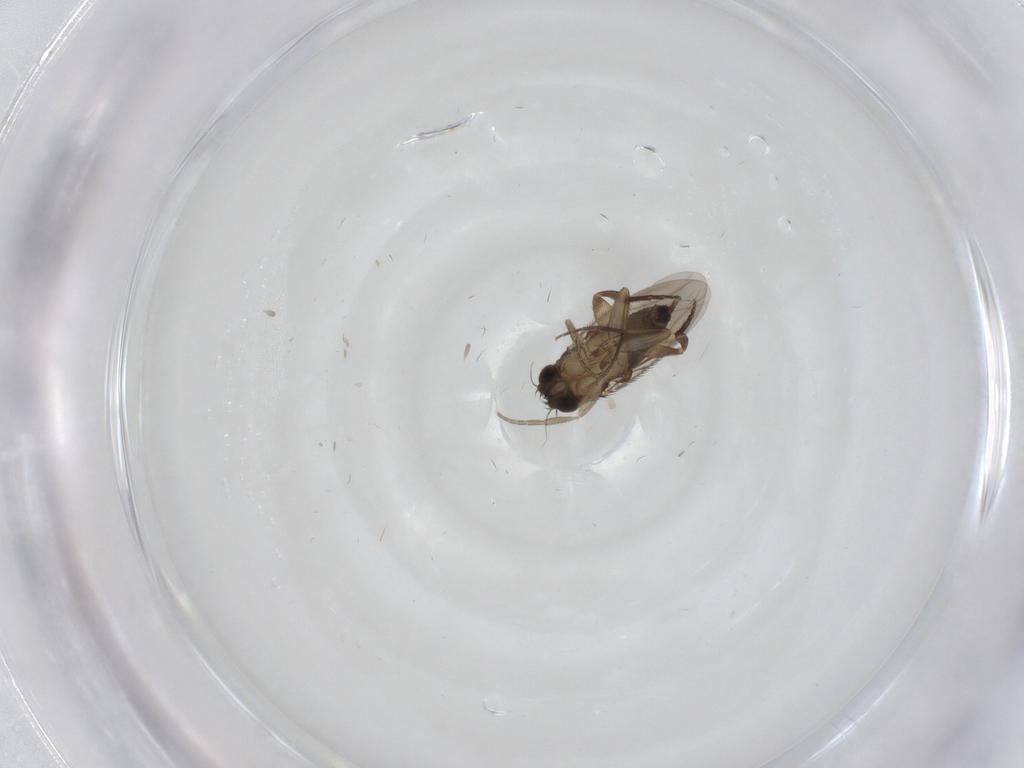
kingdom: Animalia
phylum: Arthropoda
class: Insecta
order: Diptera
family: Phoridae
